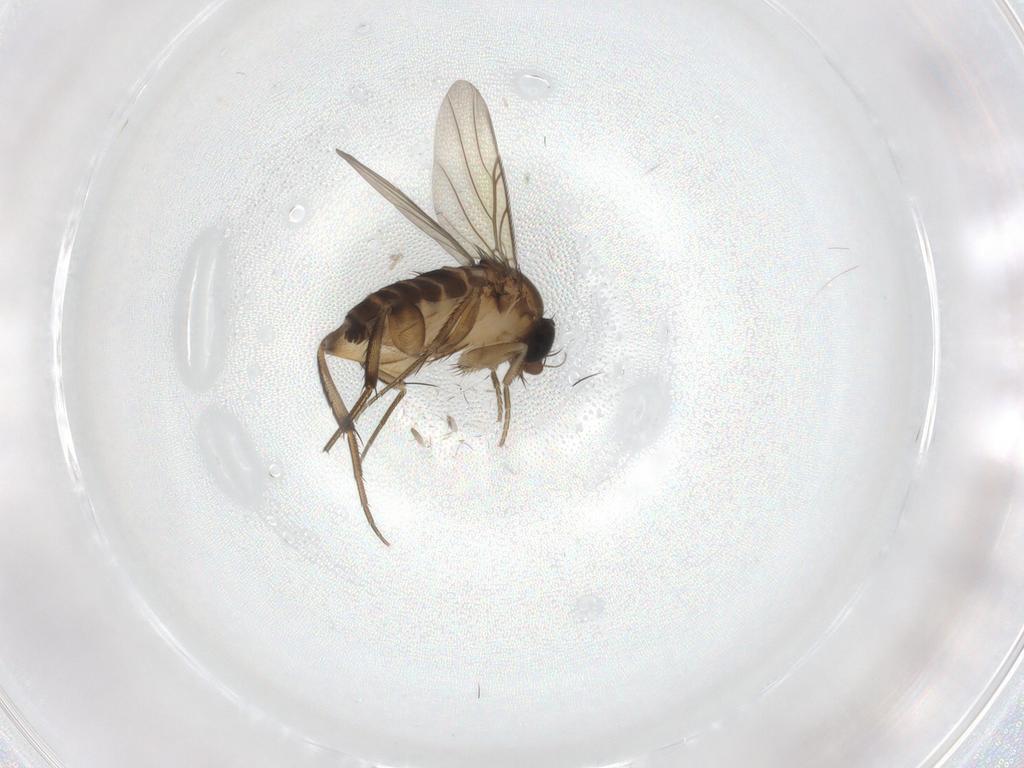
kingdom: Animalia
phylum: Arthropoda
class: Insecta
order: Diptera
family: Phoridae
